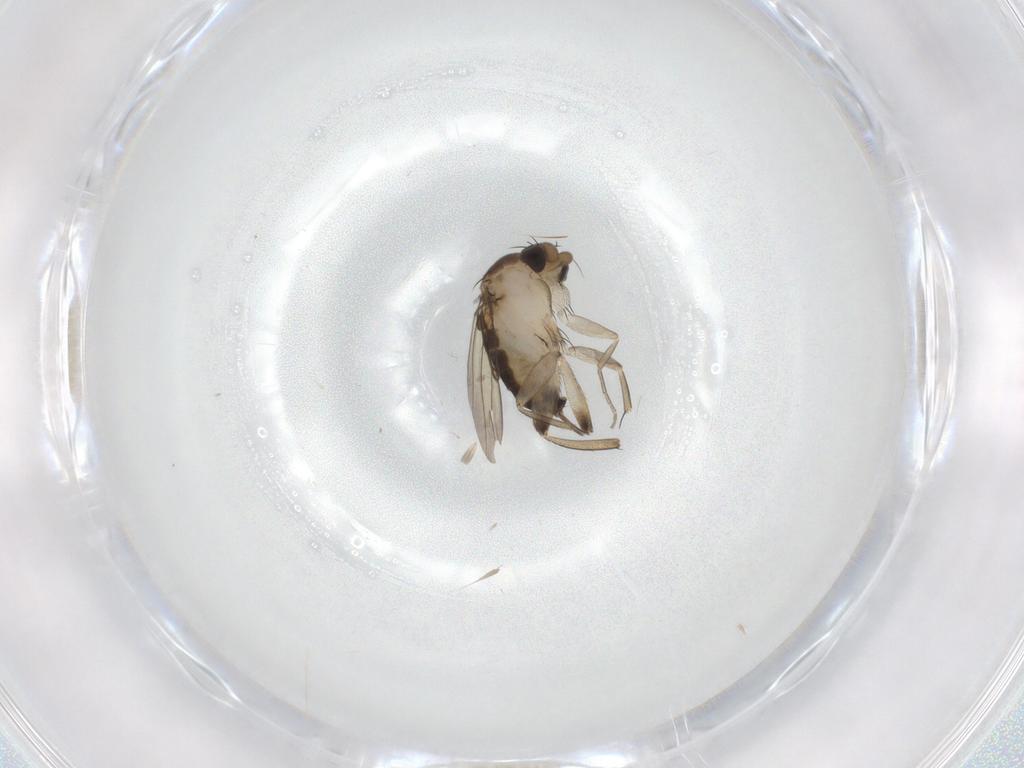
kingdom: Animalia
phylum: Arthropoda
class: Insecta
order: Diptera
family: Phoridae
